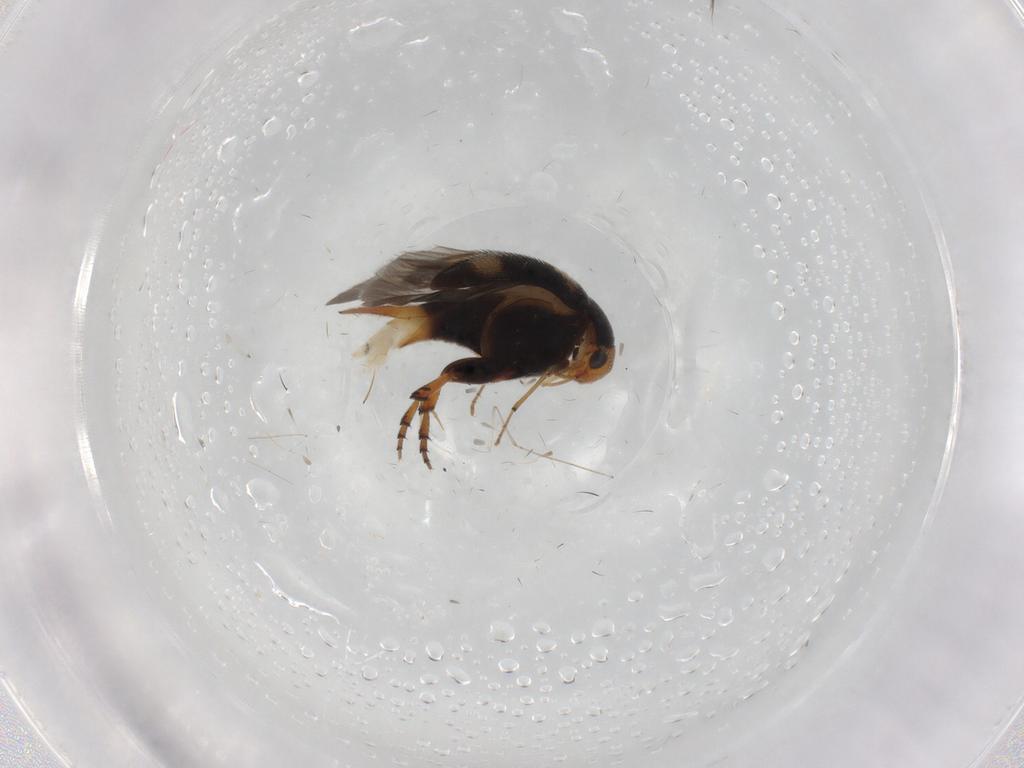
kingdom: Animalia
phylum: Arthropoda
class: Insecta
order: Coleoptera
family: Mordellidae
